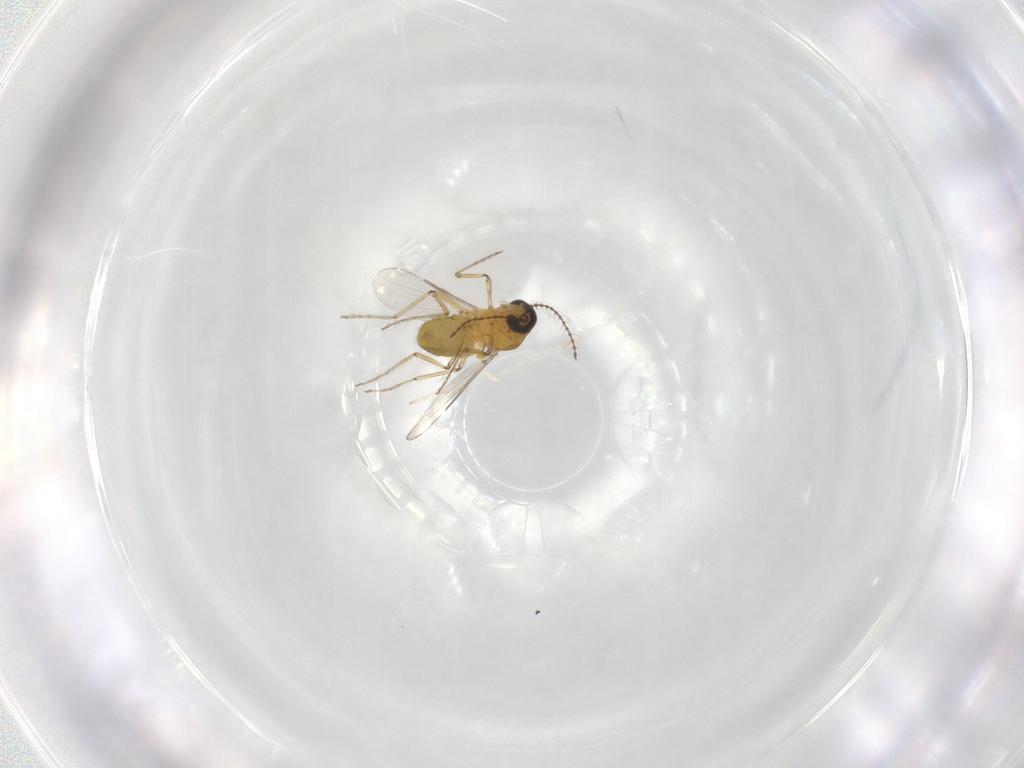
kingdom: Animalia
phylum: Arthropoda
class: Insecta
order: Diptera
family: Ceratopogonidae
